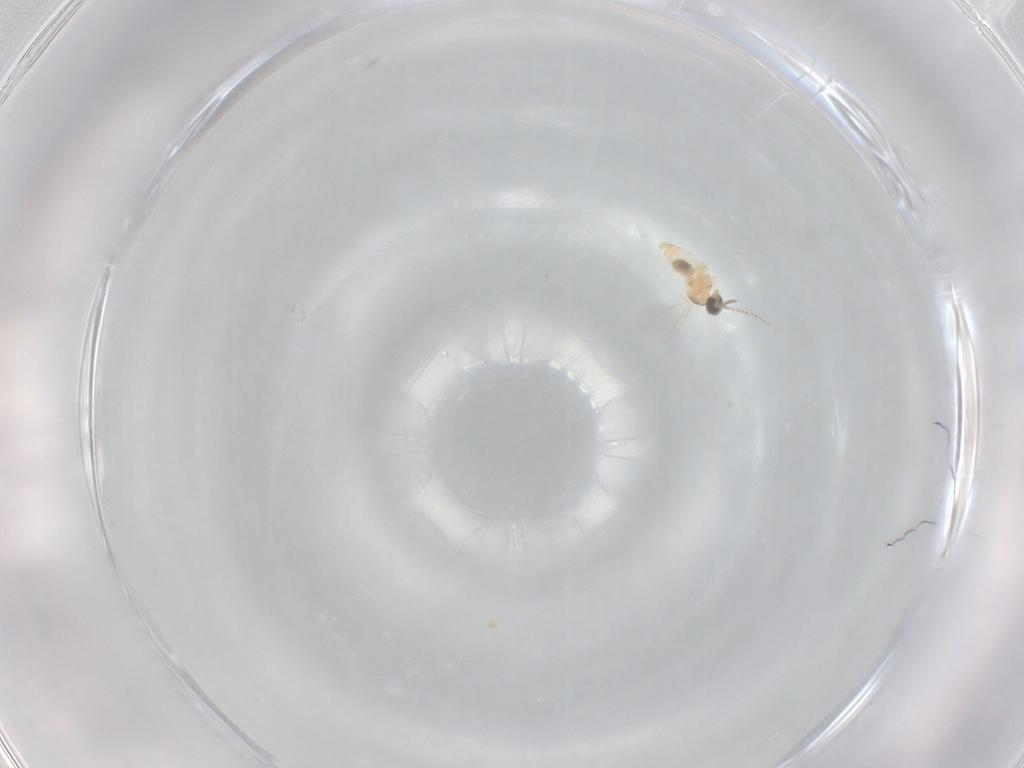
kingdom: Animalia
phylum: Arthropoda
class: Insecta
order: Diptera
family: Cecidomyiidae
